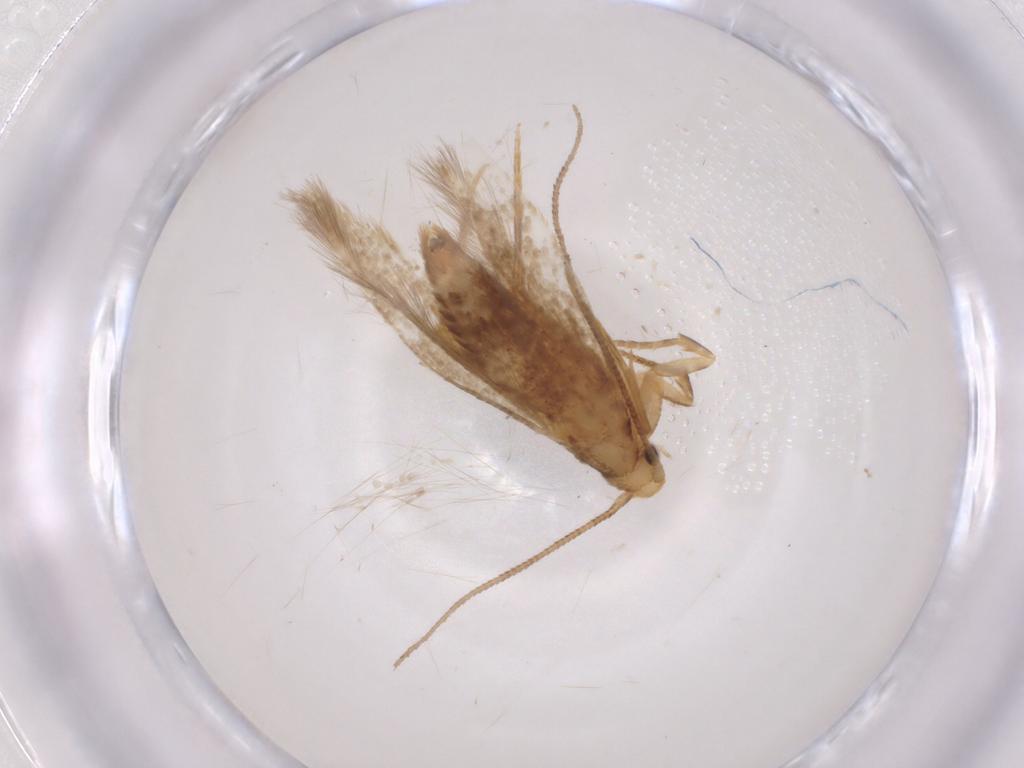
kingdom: Animalia
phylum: Arthropoda
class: Insecta
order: Lepidoptera
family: Tineidae
